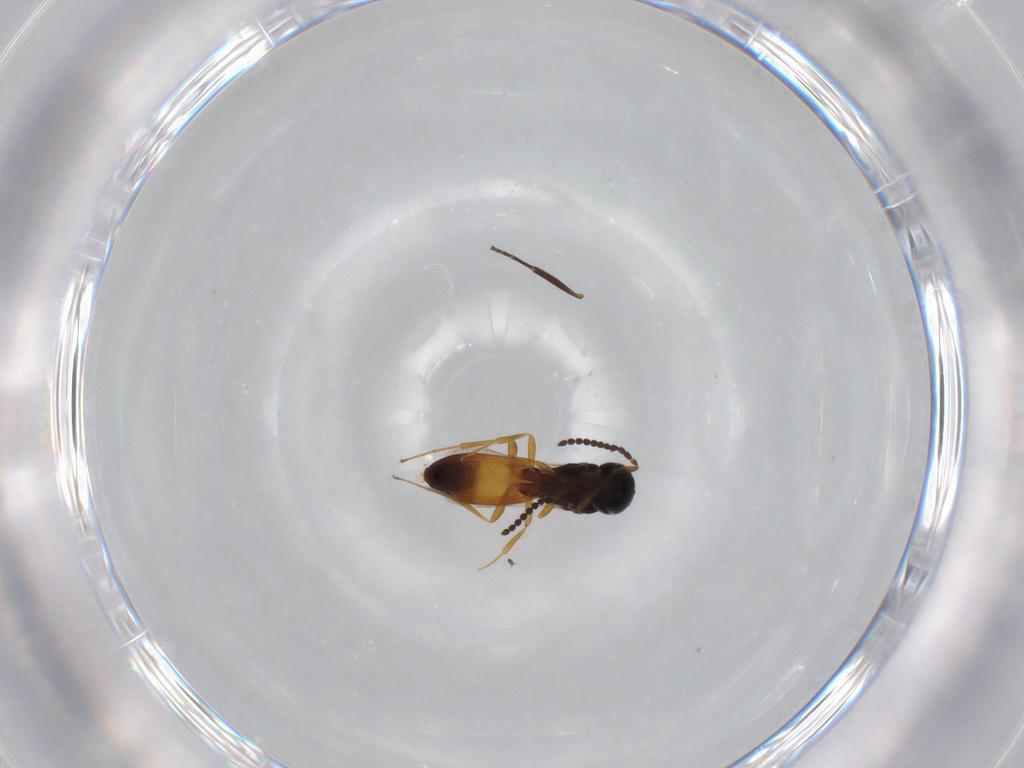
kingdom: Animalia
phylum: Arthropoda
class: Insecta
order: Hymenoptera
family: Scelionidae
